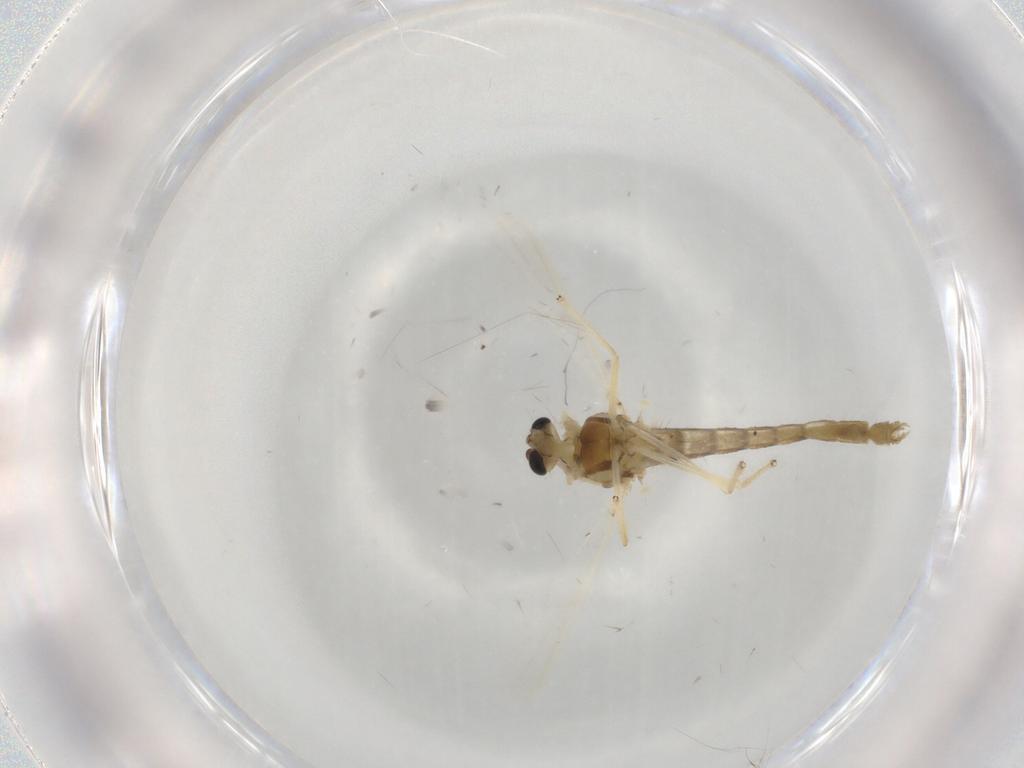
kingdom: Animalia
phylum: Arthropoda
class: Insecta
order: Diptera
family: Chironomidae
